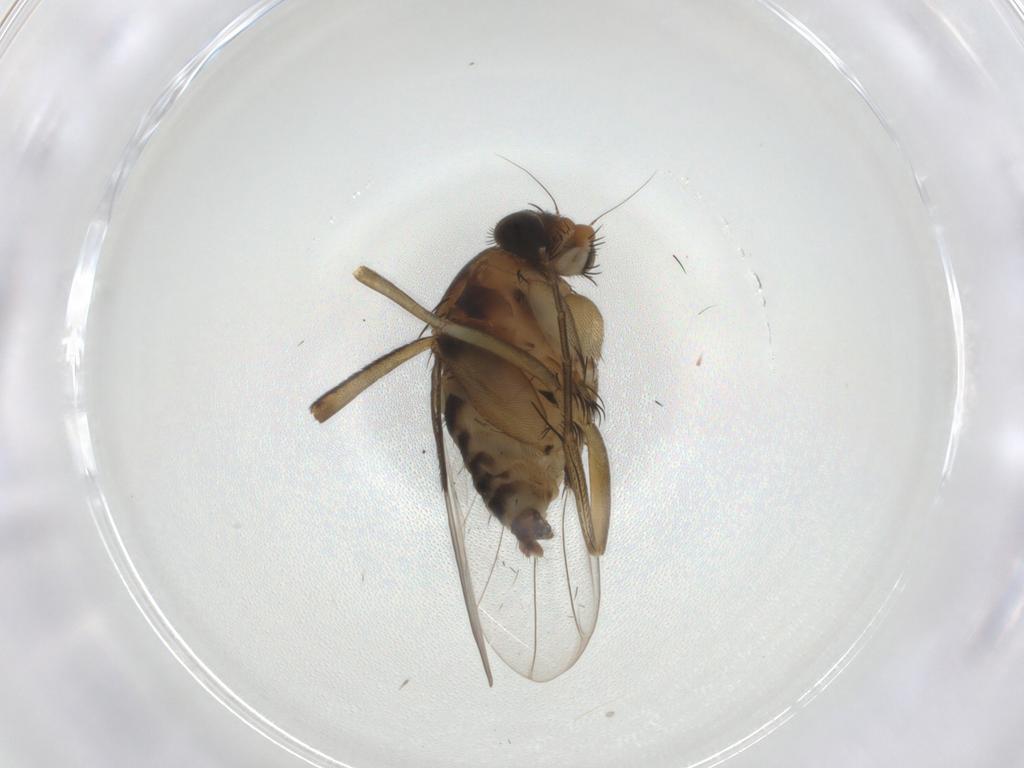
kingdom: Animalia
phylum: Arthropoda
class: Insecta
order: Diptera
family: Phoridae
